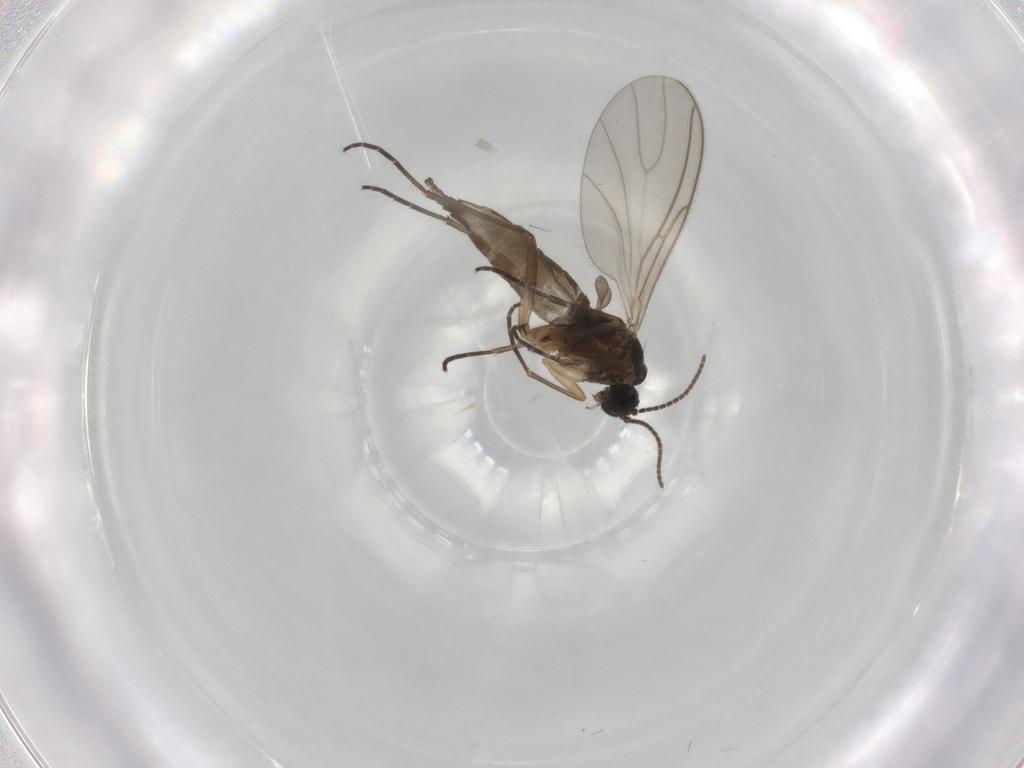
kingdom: Animalia
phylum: Arthropoda
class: Insecta
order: Diptera
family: Sciaridae
